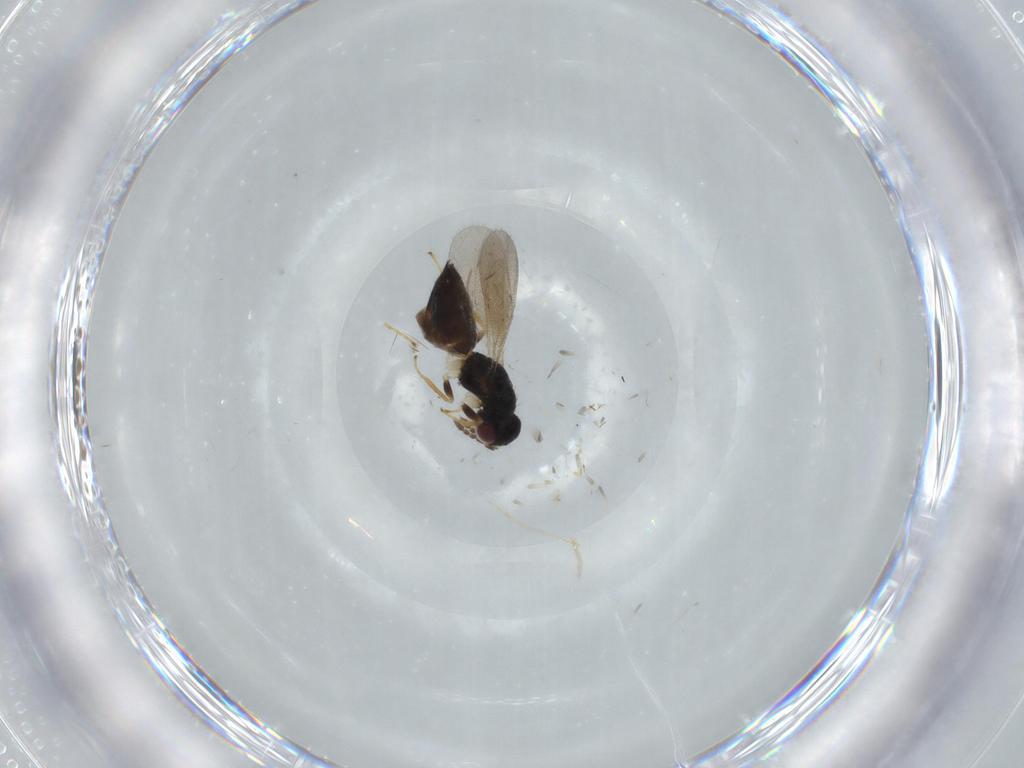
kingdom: Animalia
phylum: Arthropoda
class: Insecta
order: Hymenoptera
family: Eulophidae
